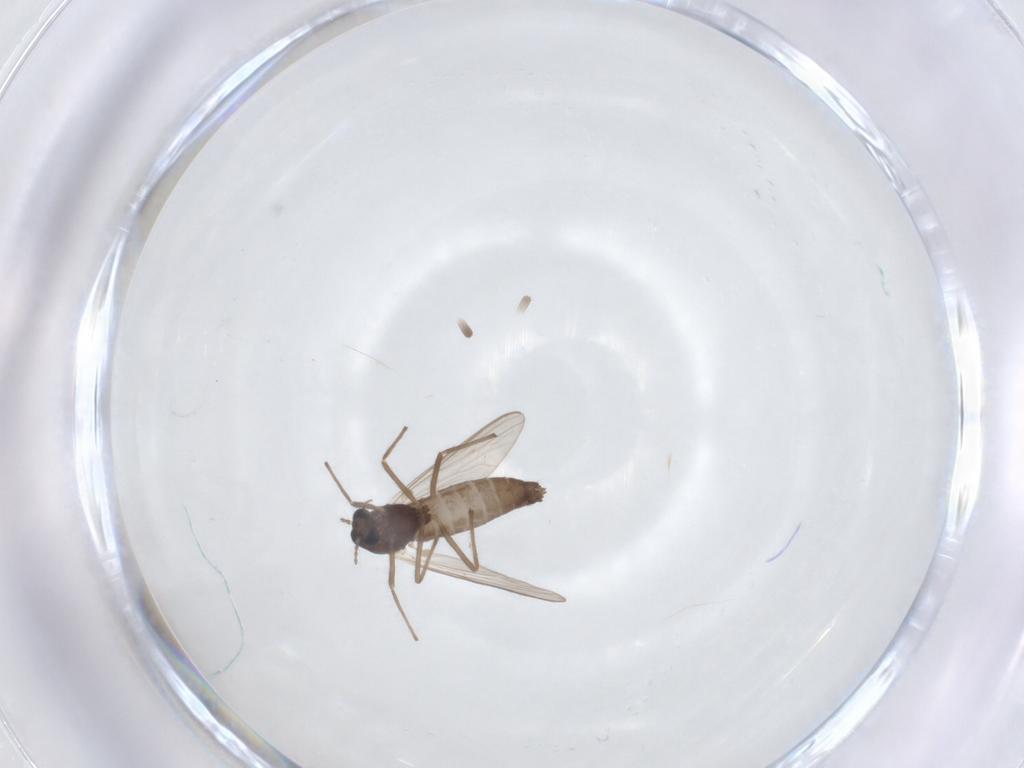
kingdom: Animalia
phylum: Arthropoda
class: Insecta
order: Diptera
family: Chironomidae
